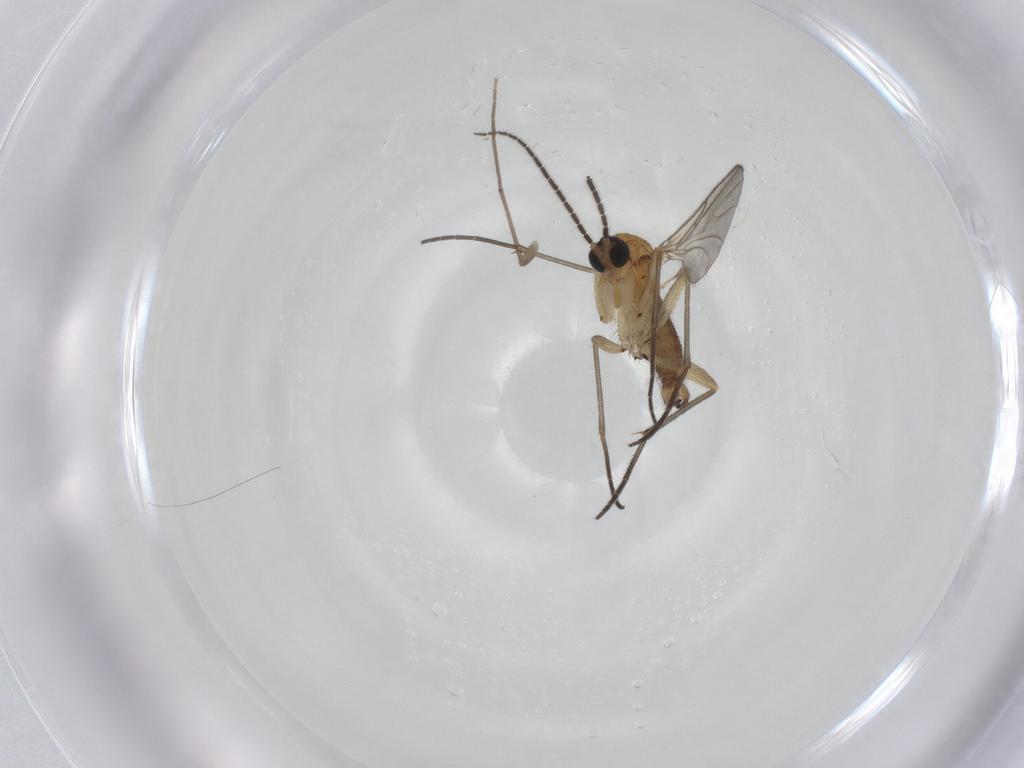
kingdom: Animalia
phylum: Arthropoda
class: Insecta
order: Diptera
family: Sciaridae
